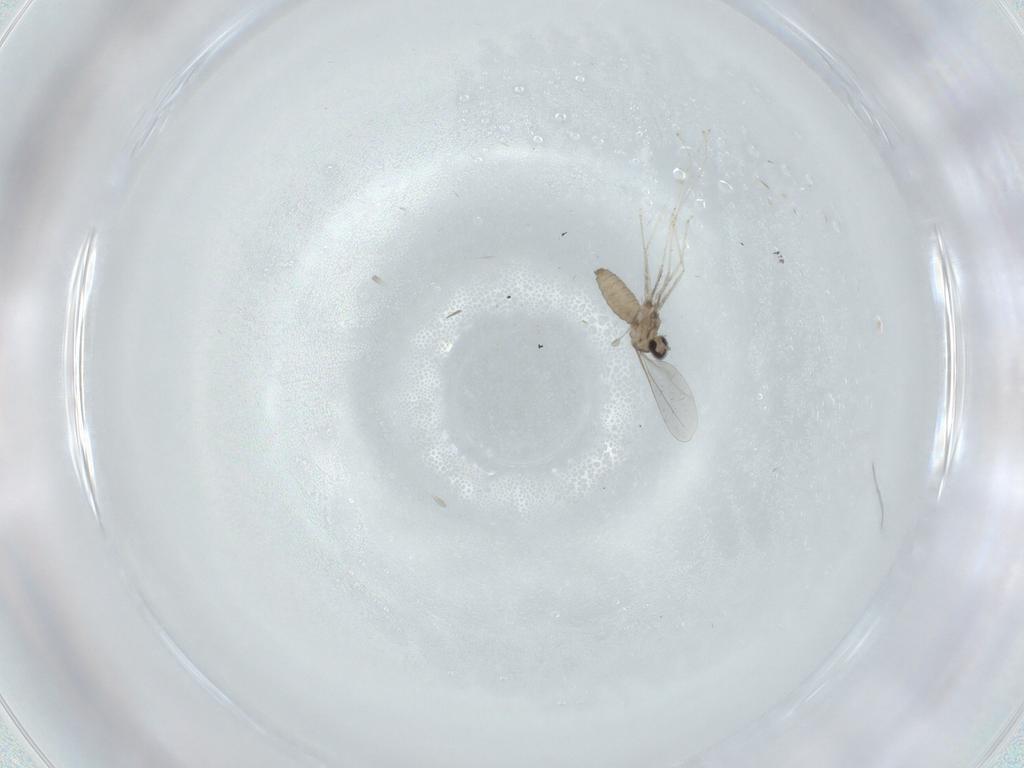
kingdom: Animalia
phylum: Arthropoda
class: Insecta
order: Diptera
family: Cecidomyiidae
